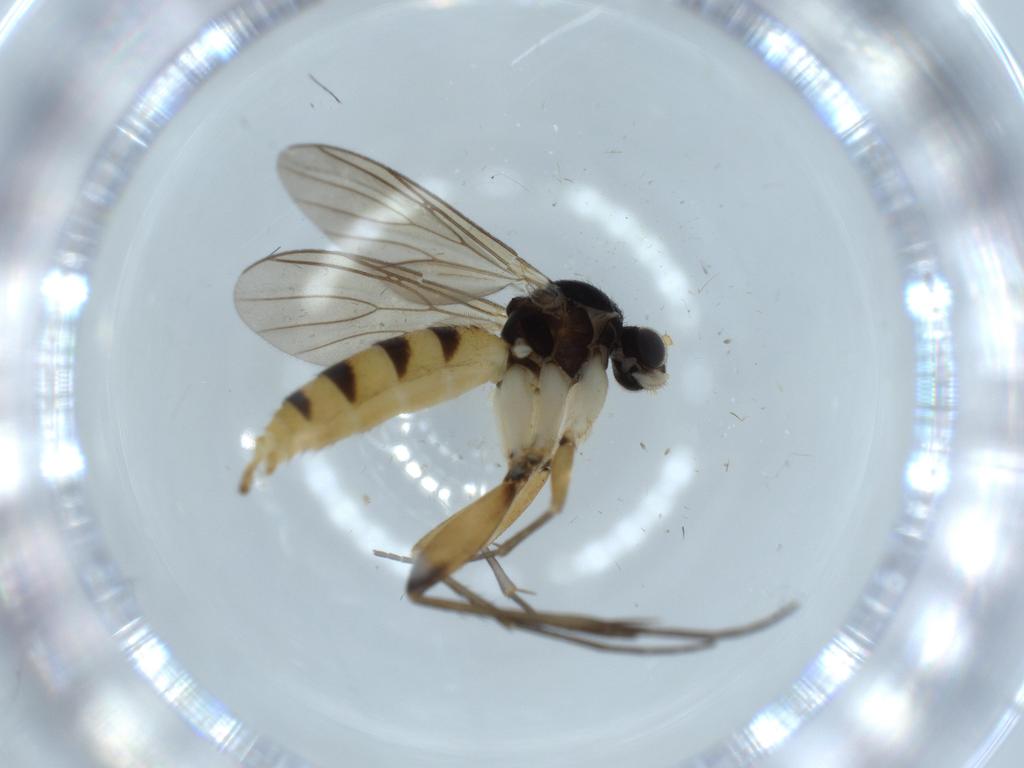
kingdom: Animalia
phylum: Arthropoda
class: Insecta
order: Diptera
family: Mycetophilidae
